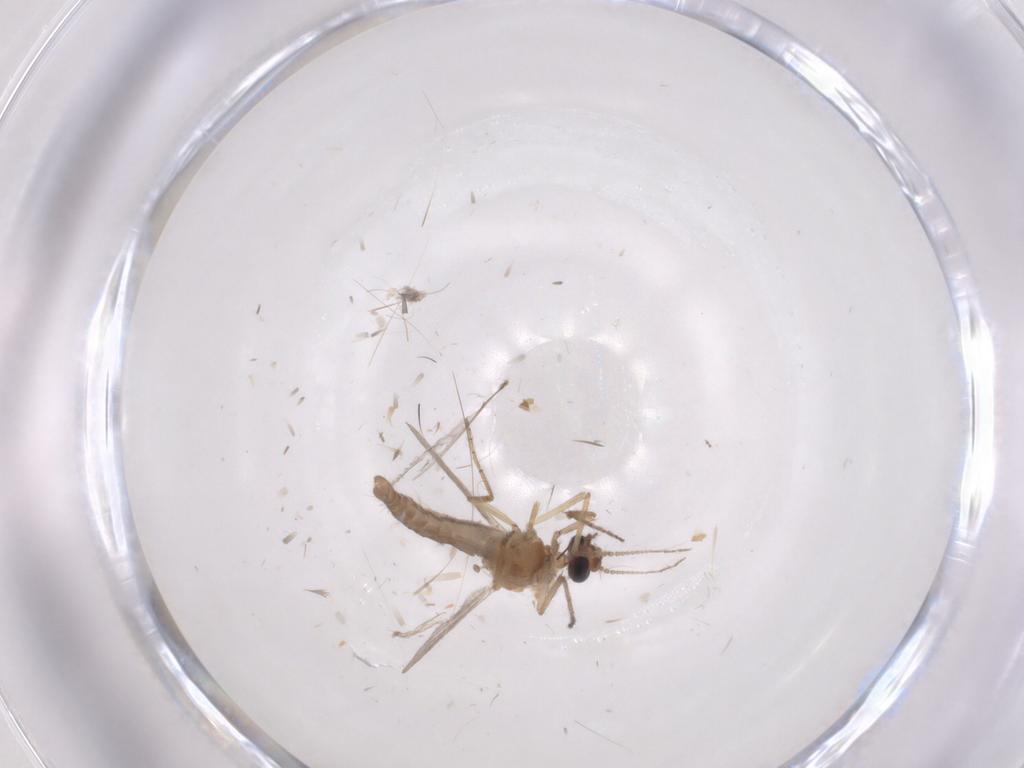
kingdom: Animalia
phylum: Arthropoda
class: Insecta
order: Diptera
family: Ceratopogonidae
